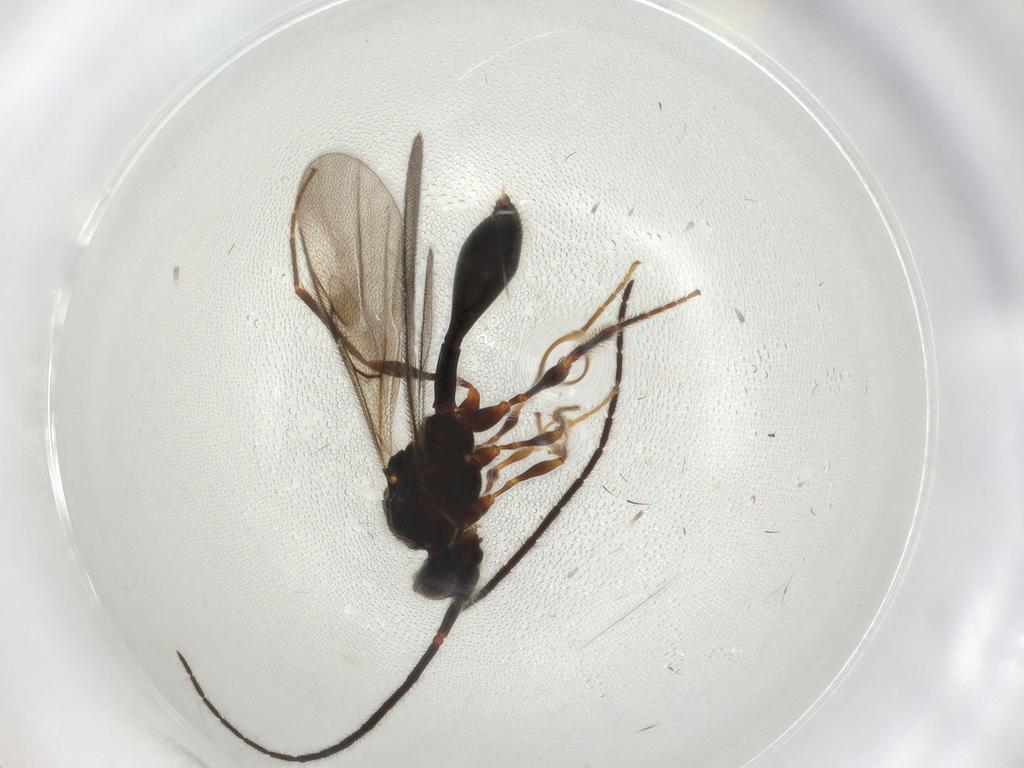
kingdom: Animalia
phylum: Arthropoda
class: Insecta
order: Hymenoptera
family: Diapriidae
